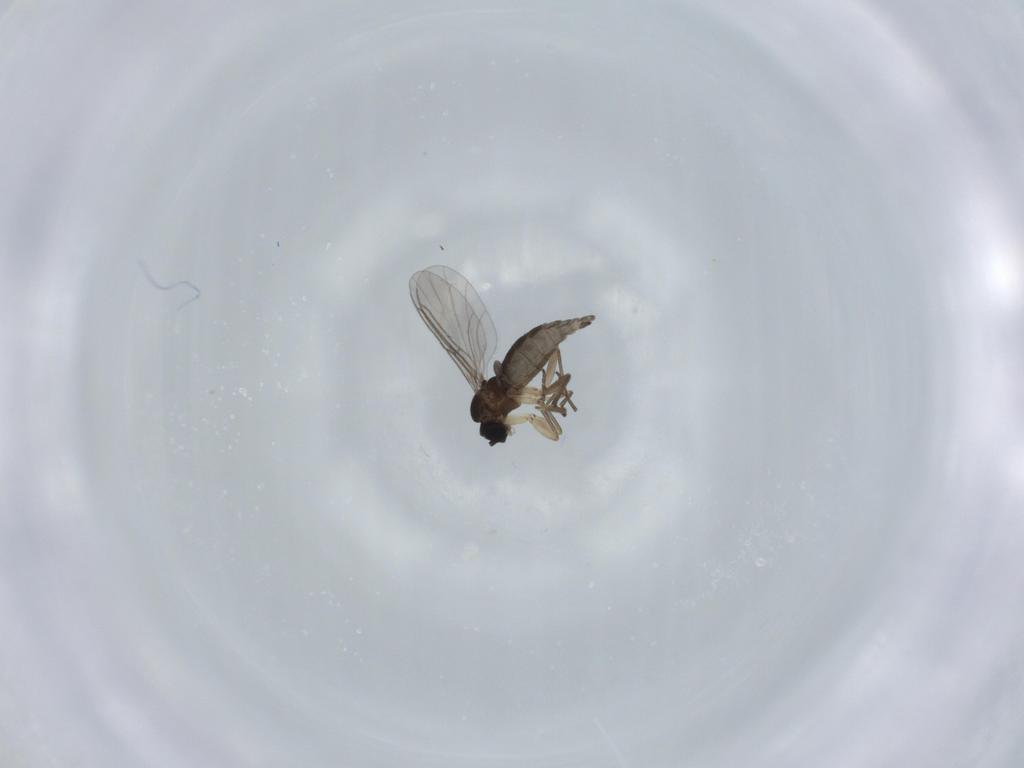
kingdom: Animalia
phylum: Arthropoda
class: Insecta
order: Diptera
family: Sciaridae
